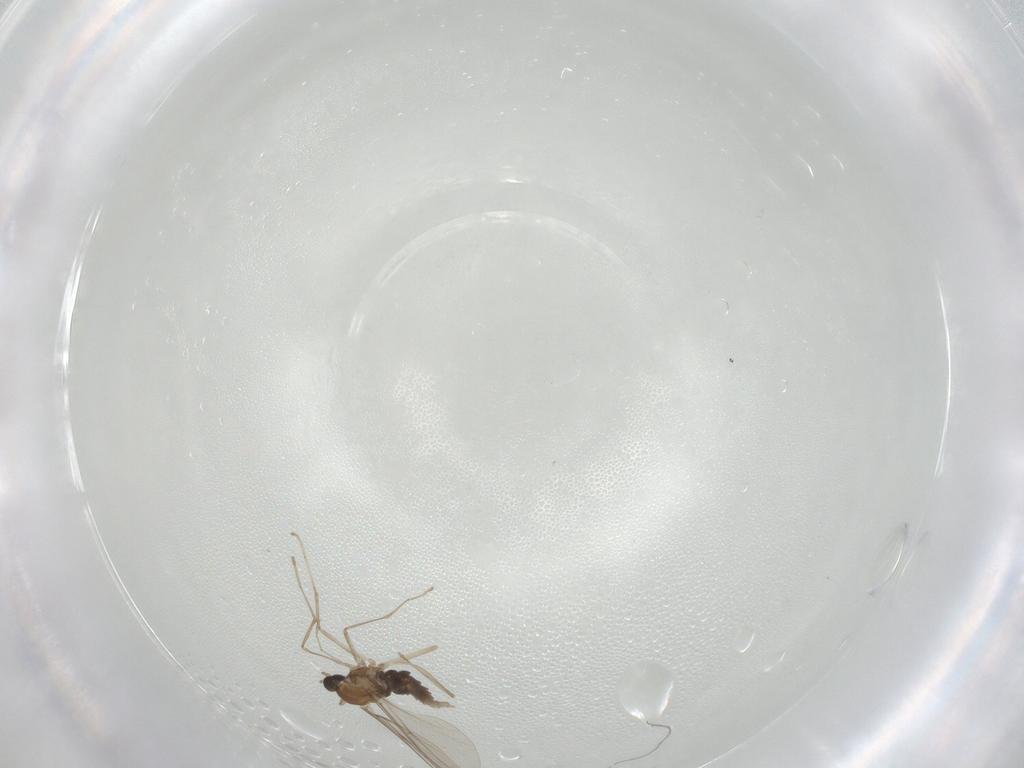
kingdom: Animalia
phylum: Arthropoda
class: Insecta
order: Diptera
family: Cecidomyiidae
